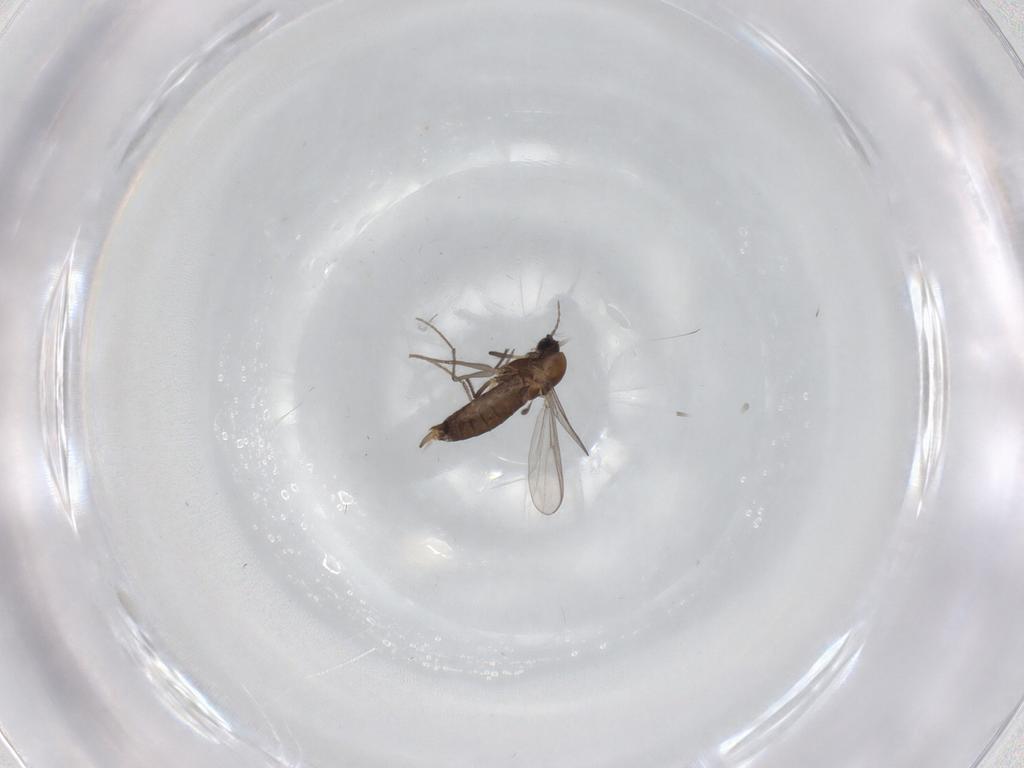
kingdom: Animalia
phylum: Arthropoda
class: Insecta
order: Diptera
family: Chironomidae
